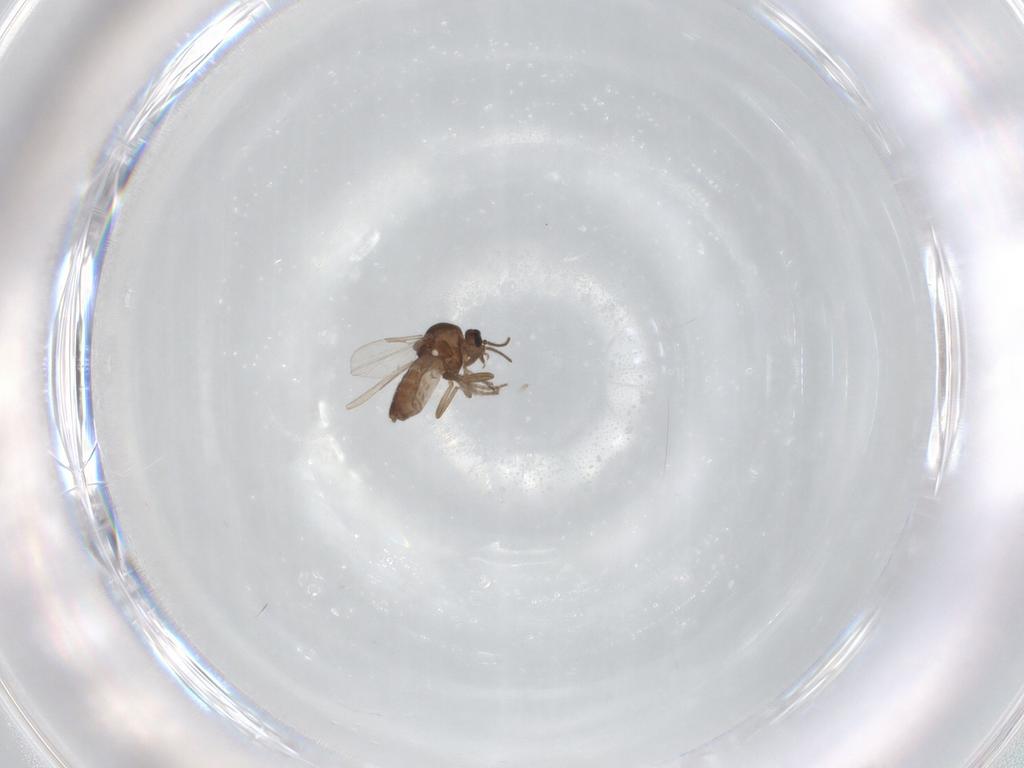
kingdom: Animalia
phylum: Arthropoda
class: Insecta
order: Diptera
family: Ceratopogonidae
